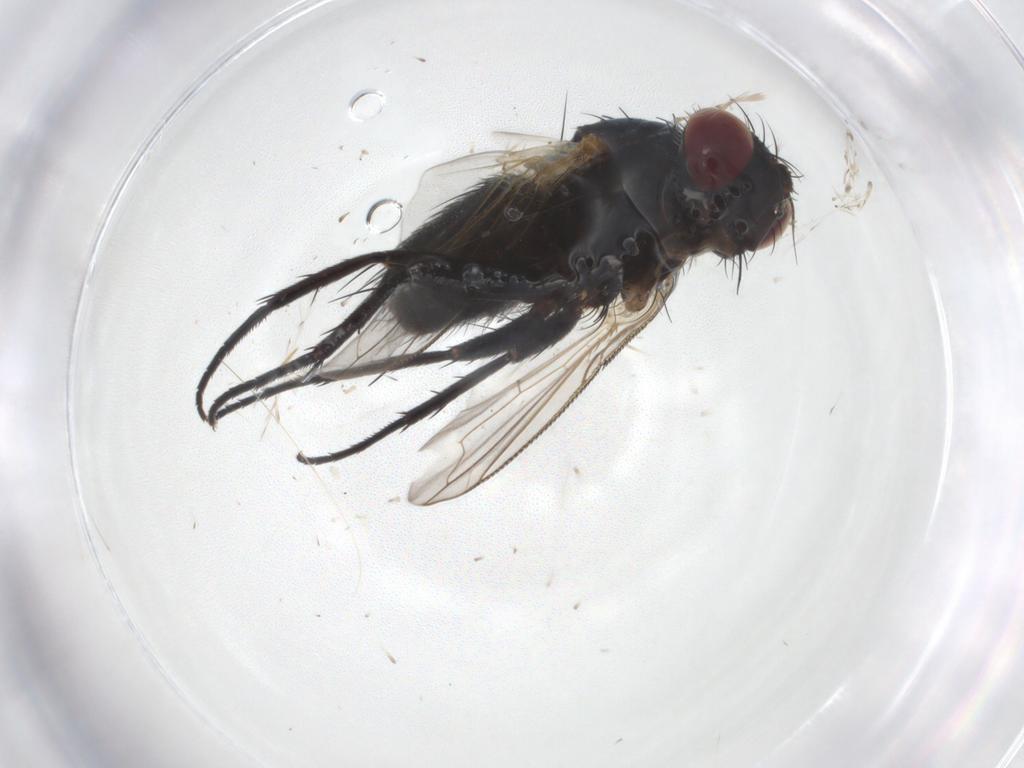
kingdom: Animalia
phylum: Arthropoda
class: Insecta
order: Diptera
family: Tachinidae
